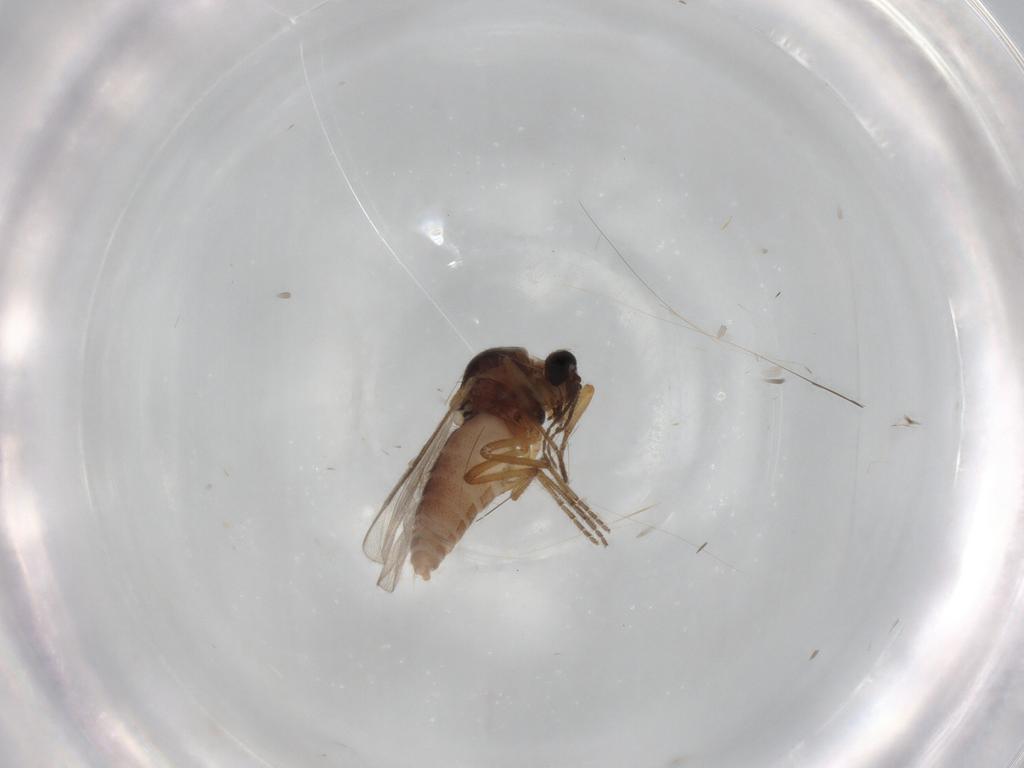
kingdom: Animalia
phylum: Arthropoda
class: Insecta
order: Diptera
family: Ceratopogonidae
